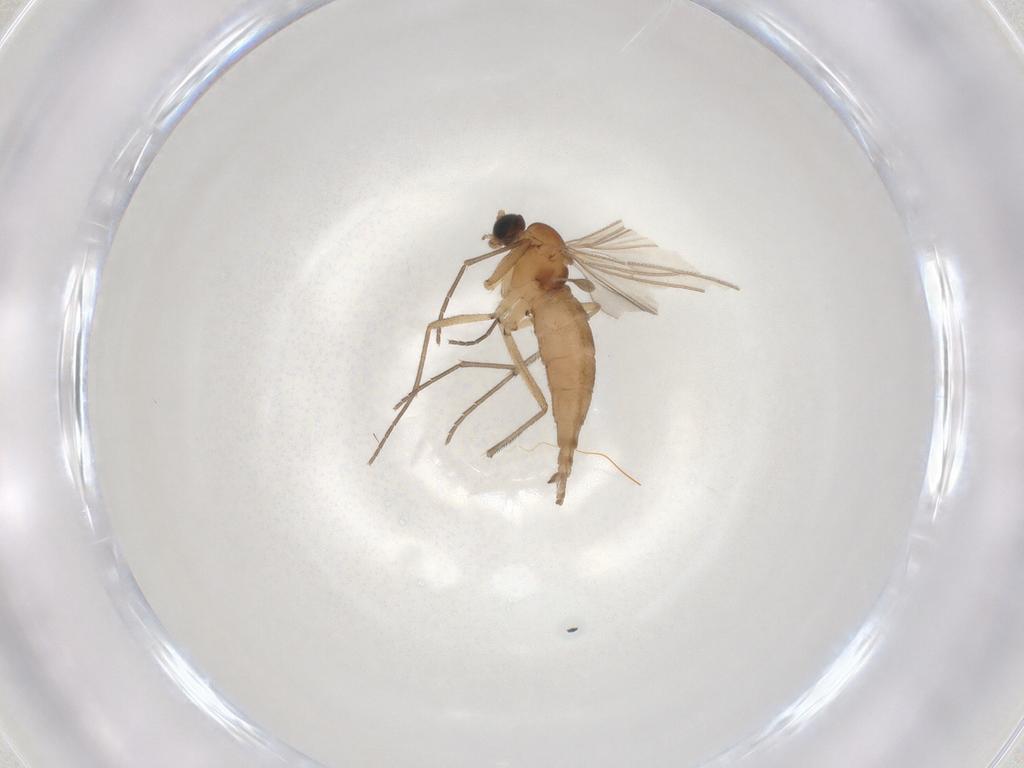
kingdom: Animalia
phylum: Arthropoda
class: Insecta
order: Diptera
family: Sciaridae
